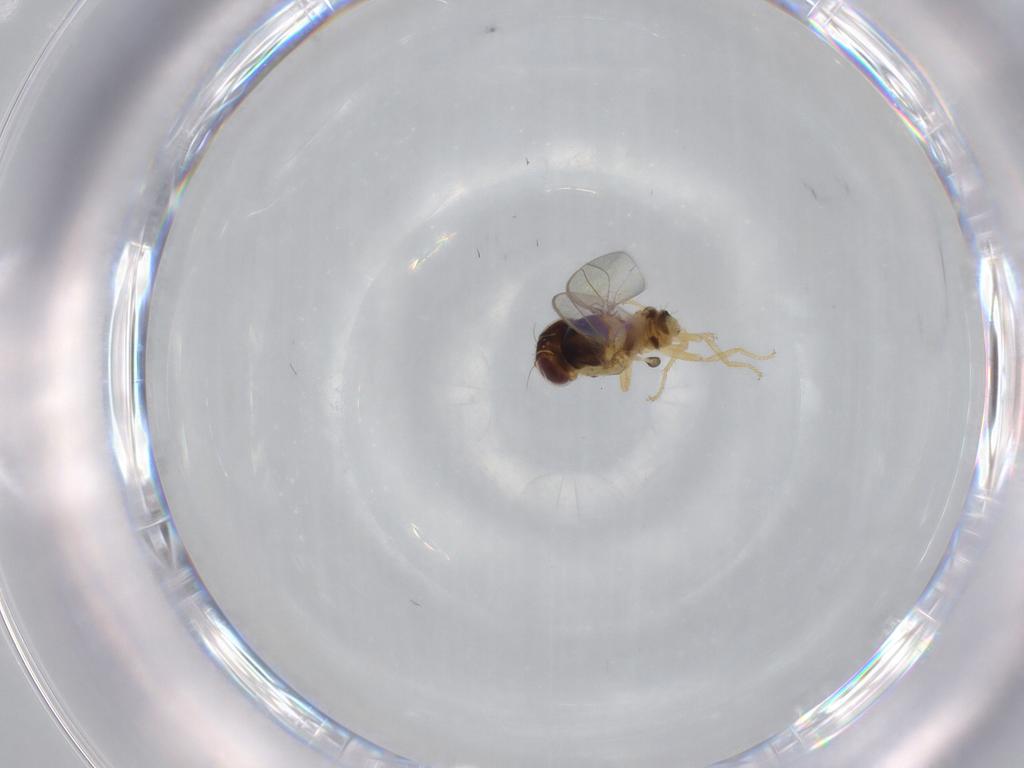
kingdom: Animalia
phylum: Arthropoda
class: Insecta
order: Diptera
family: Asteiidae
